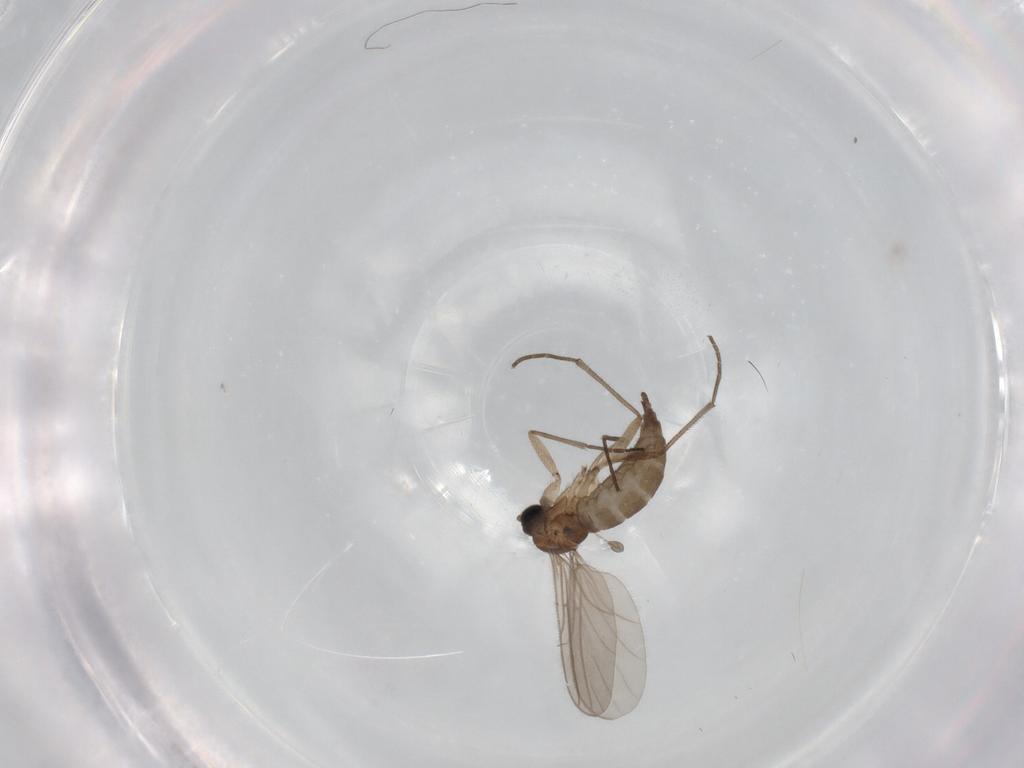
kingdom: Animalia
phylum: Arthropoda
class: Insecta
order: Diptera
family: Sciaridae
